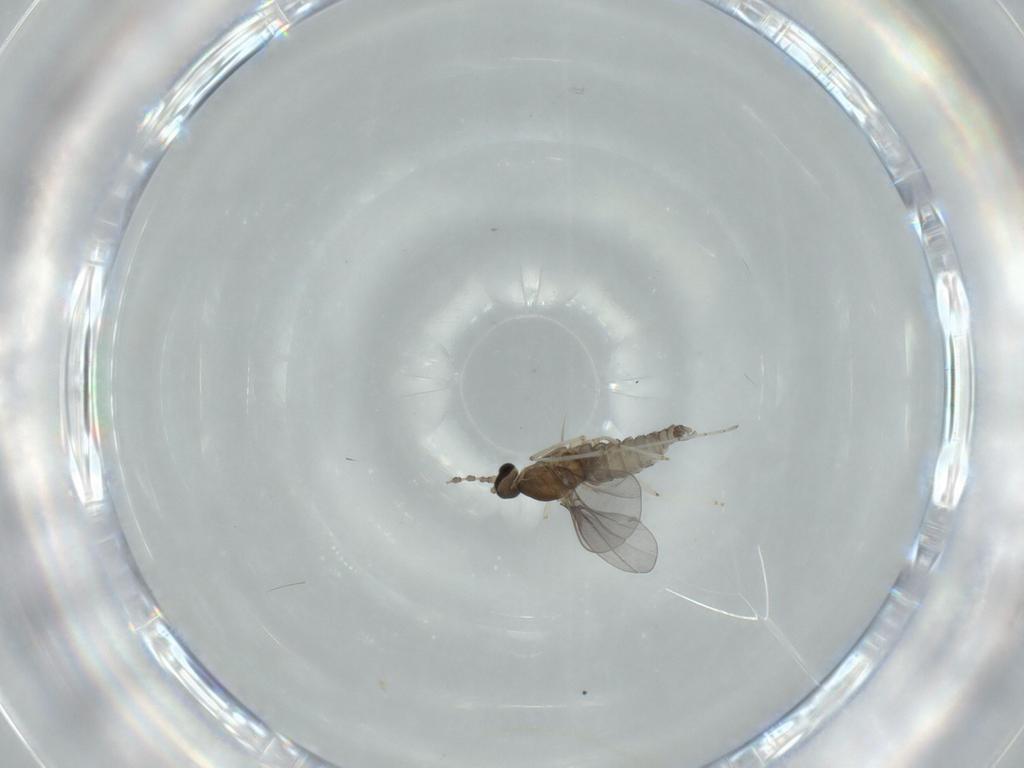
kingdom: Animalia
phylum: Arthropoda
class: Insecta
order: Diptera
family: Cecidomyiidae
